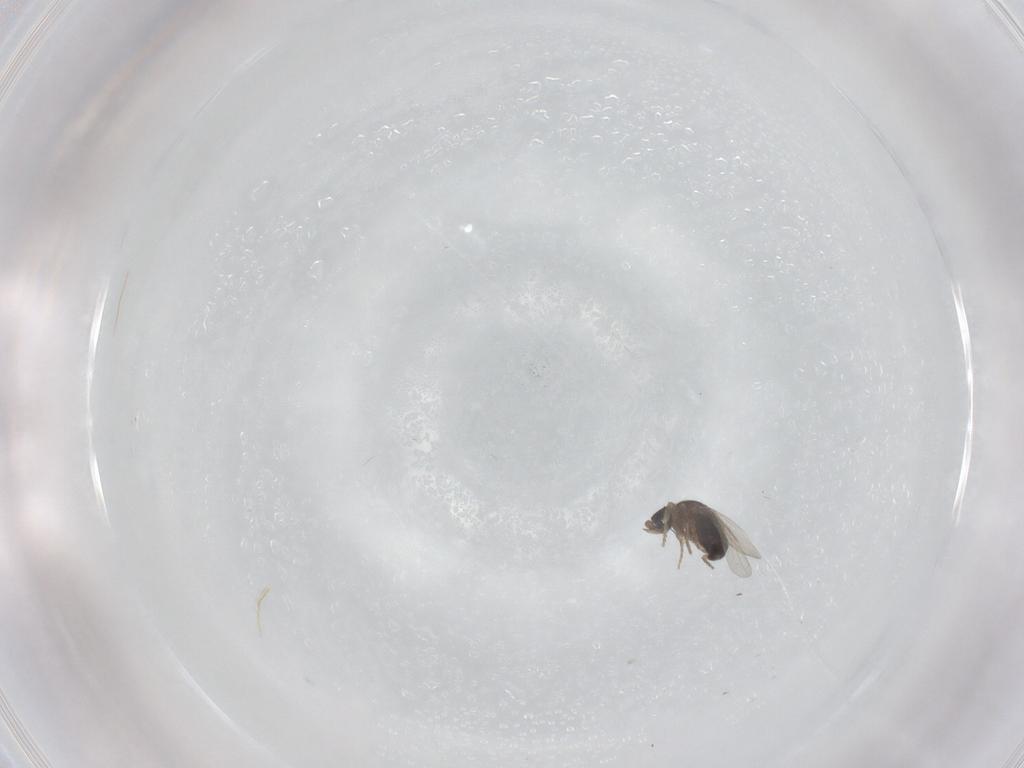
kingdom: Animalia
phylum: Arthropoda
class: Insecta
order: Diptera
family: Phoridae
